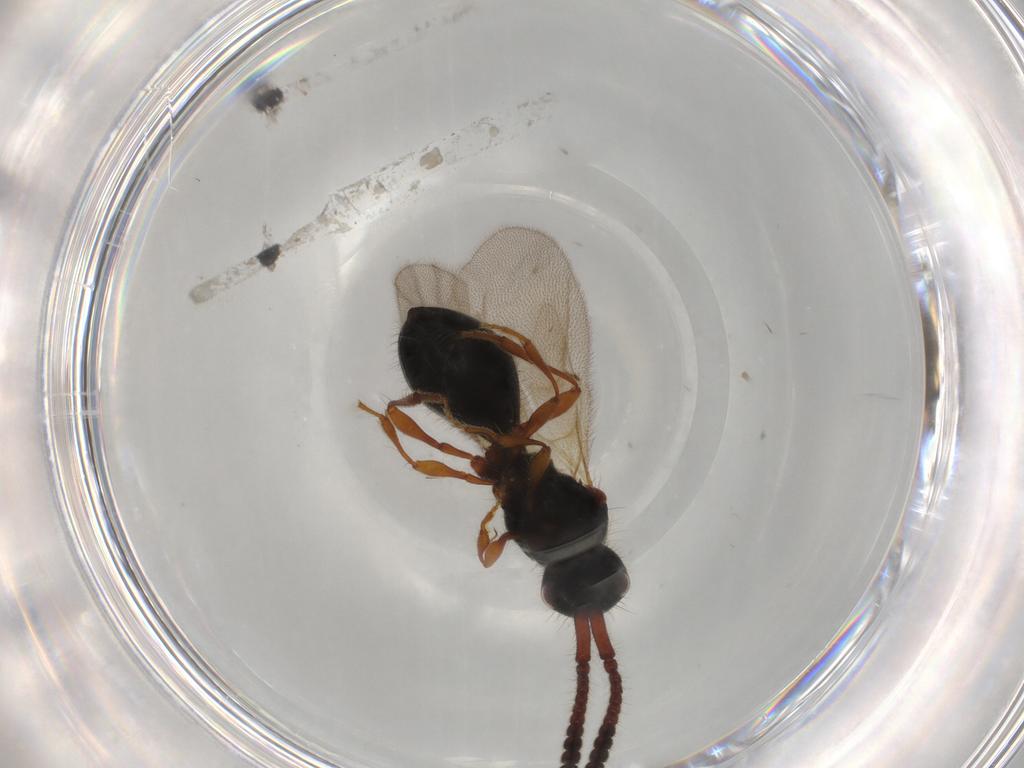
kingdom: Animalia
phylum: Arthropoda
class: Insecta
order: Hymenoptera
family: Diapriidae
